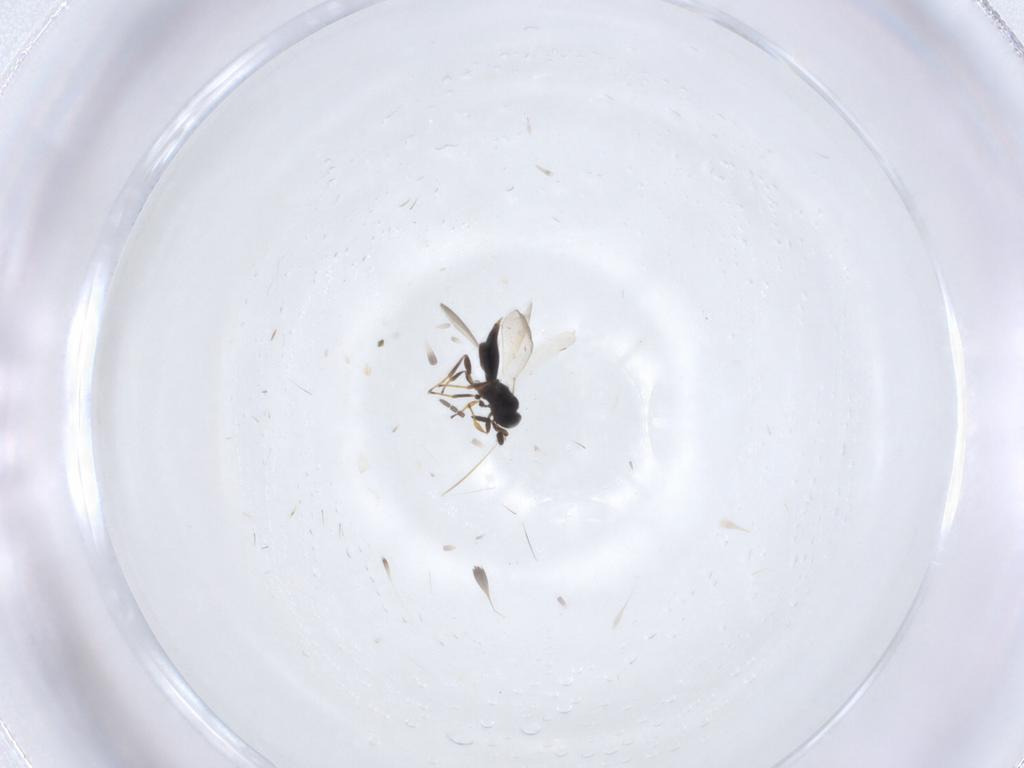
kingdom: Animalia
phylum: Arthropoda
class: Insecta
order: Hymenoptera
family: Platygastridae
